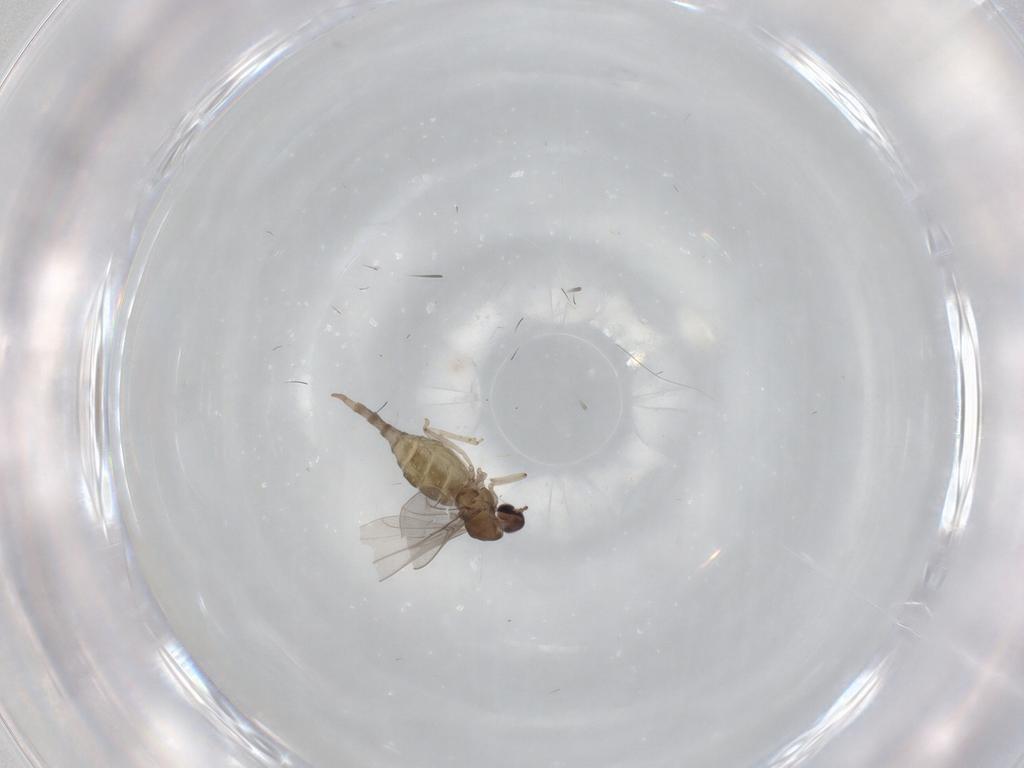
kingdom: Animalia
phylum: Arthropoda
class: Insecta
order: Diptera
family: Cecidomyiidae
